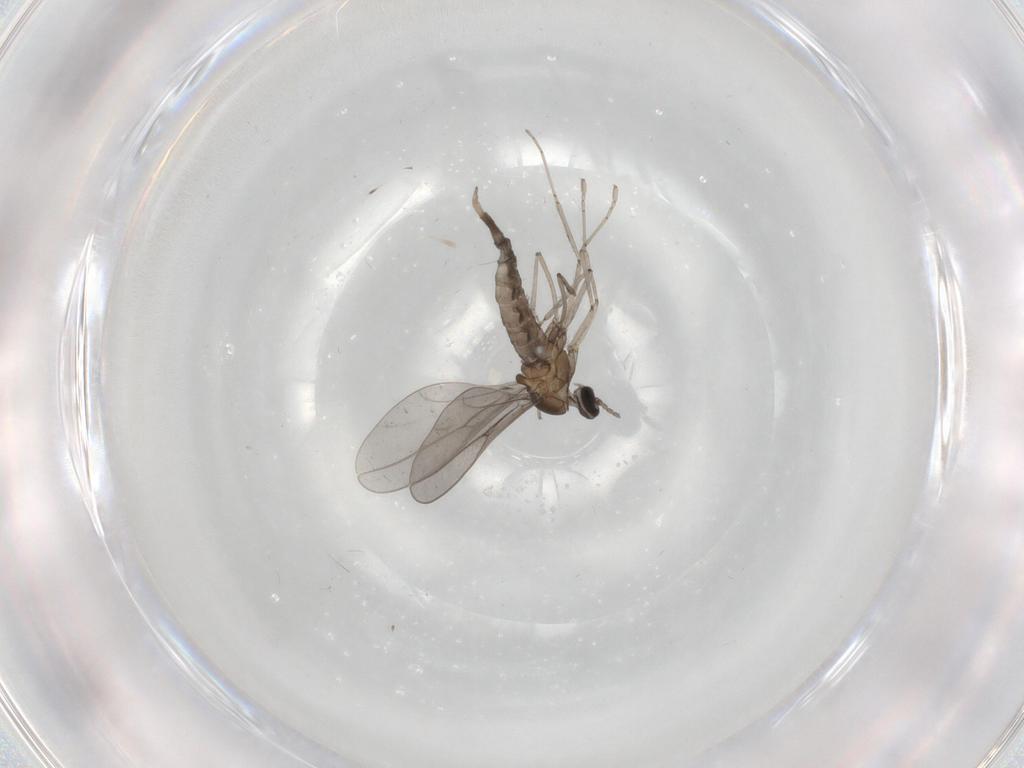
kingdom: Animalia
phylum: Arthropoda
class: Insecta
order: Diptera
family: Cecidomyiidae
